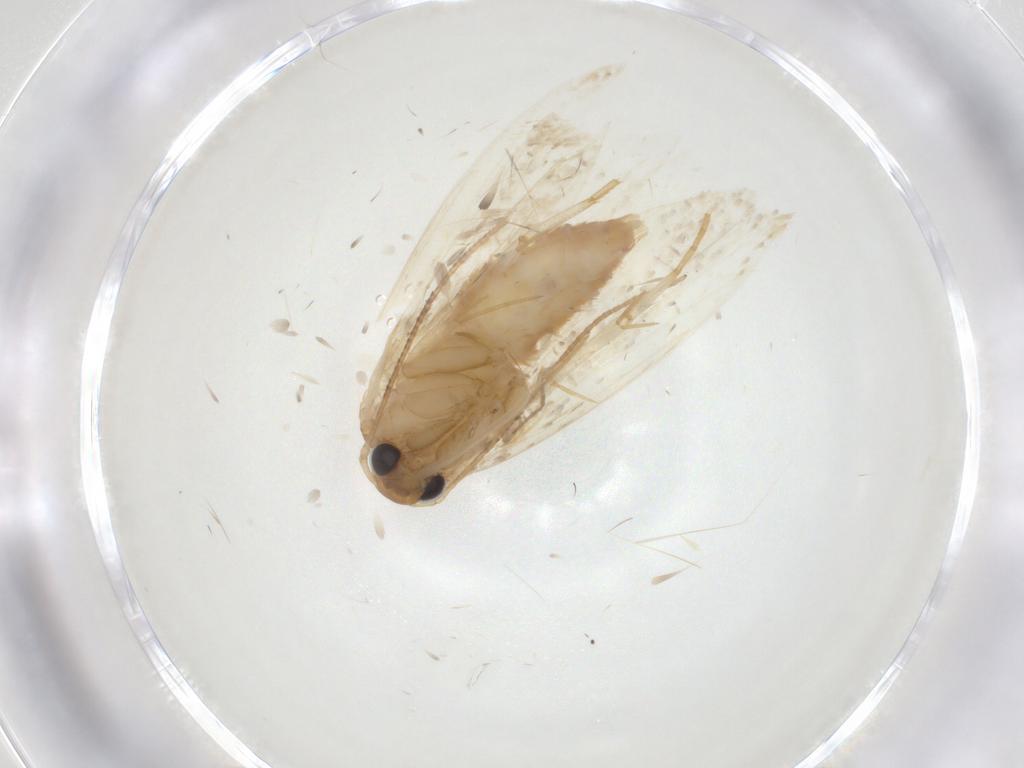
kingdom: Animalia
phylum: Arthropoda
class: Insecta
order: Lepidoptera
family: Oecophoridae
